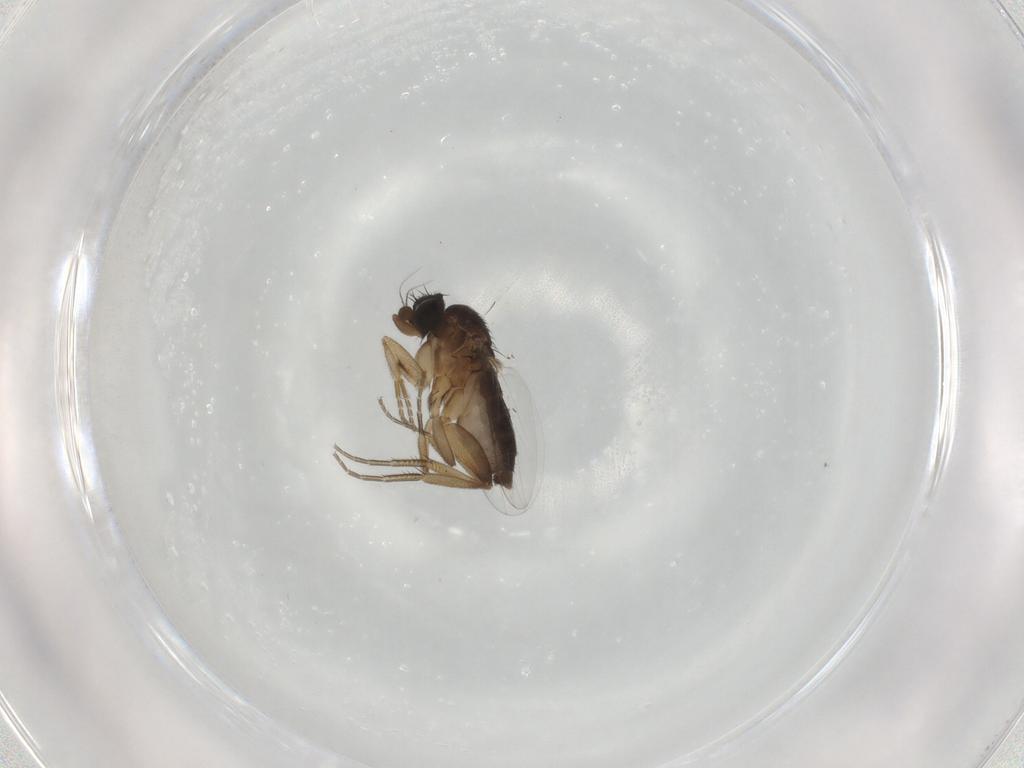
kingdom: Animalia
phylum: Arthropoda
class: Insecta
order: Diptera
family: Phoridae
